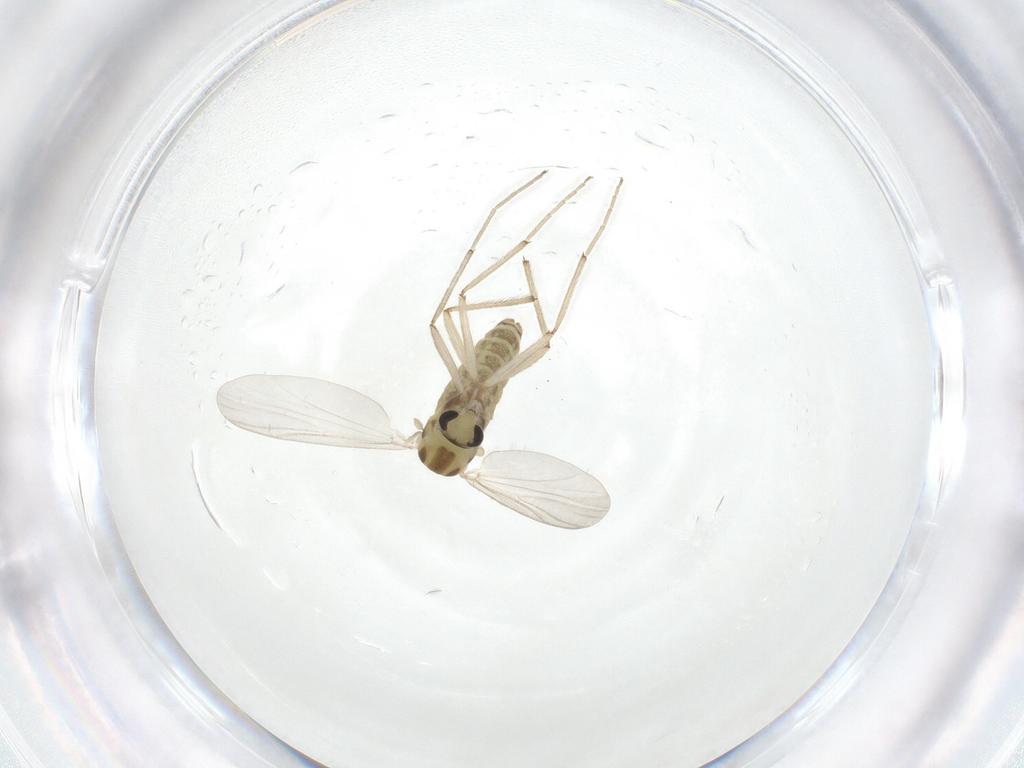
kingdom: Animalia
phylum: Arthropoda
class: Insecta
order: Diptera
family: Chironomidae
